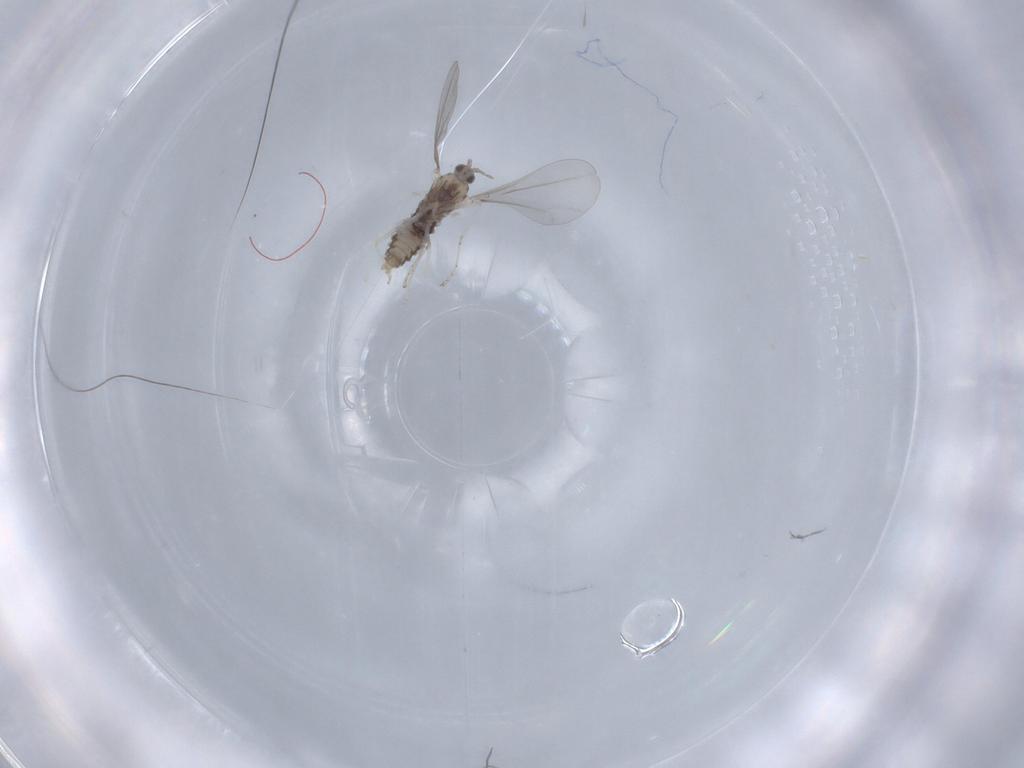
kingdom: Animalia
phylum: Arthropoda
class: Insecta
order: Diptera
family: Cecidomyiidae
